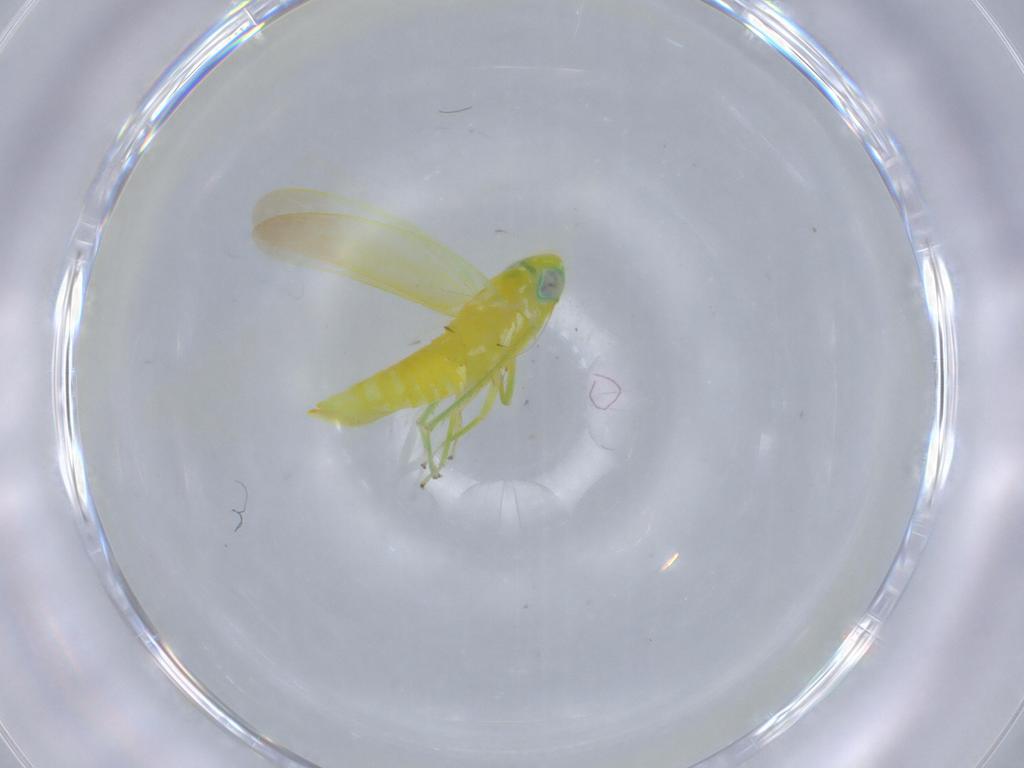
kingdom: Animalia
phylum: Arthropoda
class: Insecta
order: Hemiptera
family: Cicadellidae
